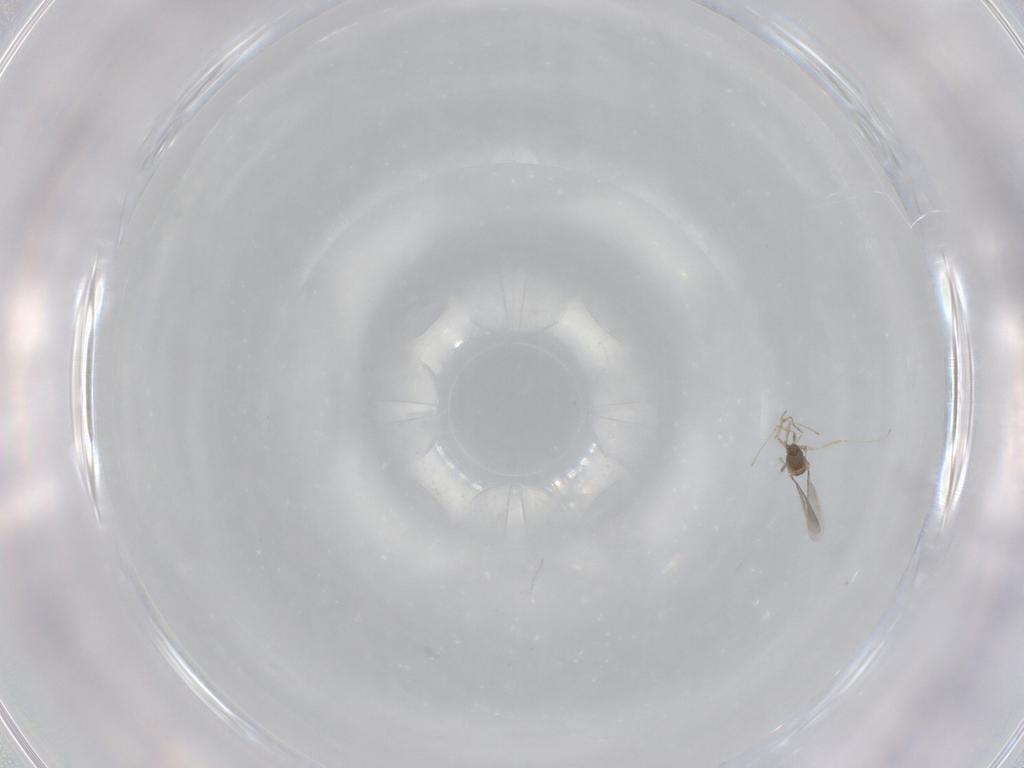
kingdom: Animalia
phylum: Arthropoda
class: Insecta
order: Diptera
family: Cecidomyiidae
